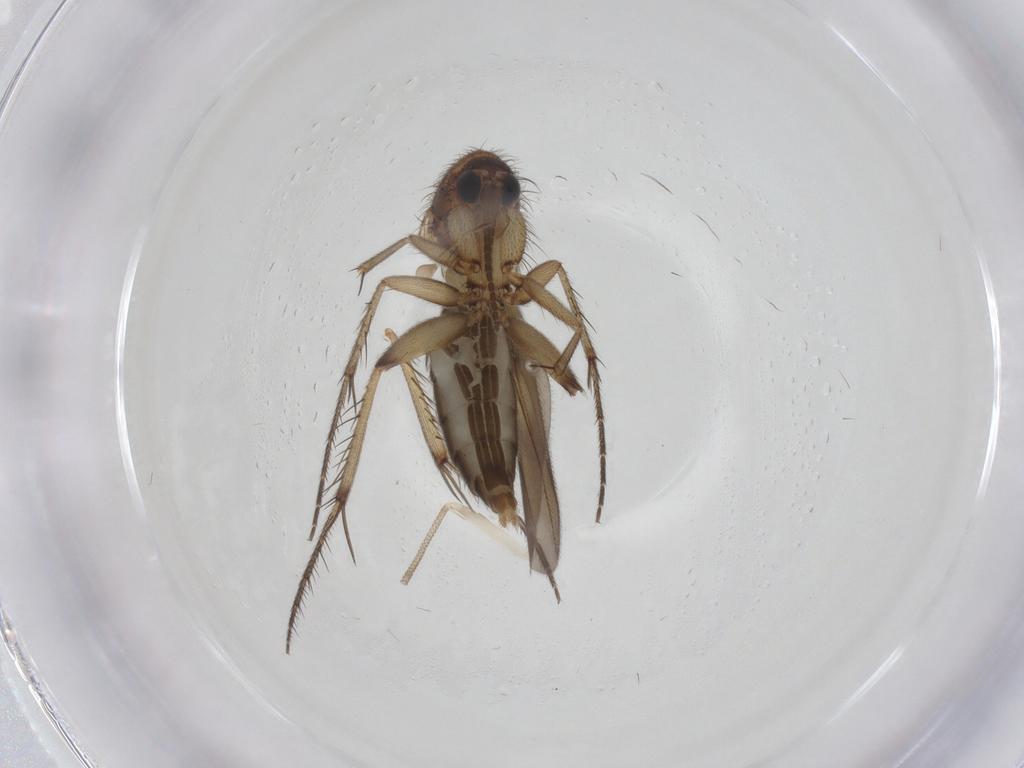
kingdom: Animalia
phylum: Arthropoda
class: Insecta
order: Diptera
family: Mycetophilidae
